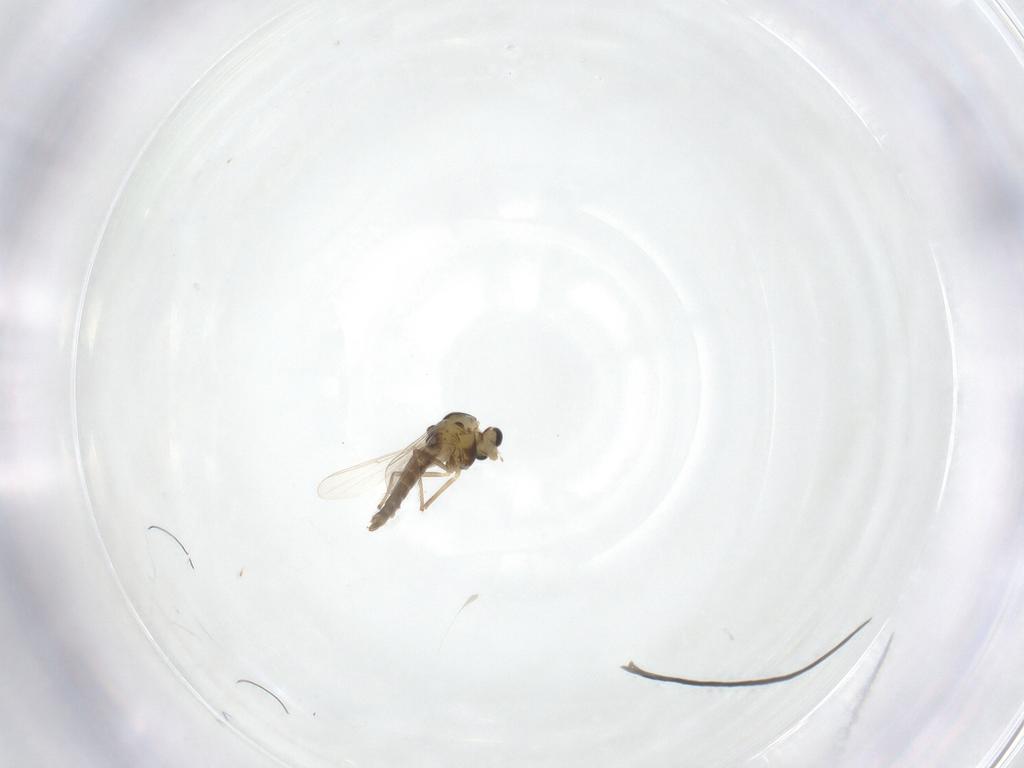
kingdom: Animalia
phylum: Arthropoda
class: Insecta
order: Diptera
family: Chironomidae
